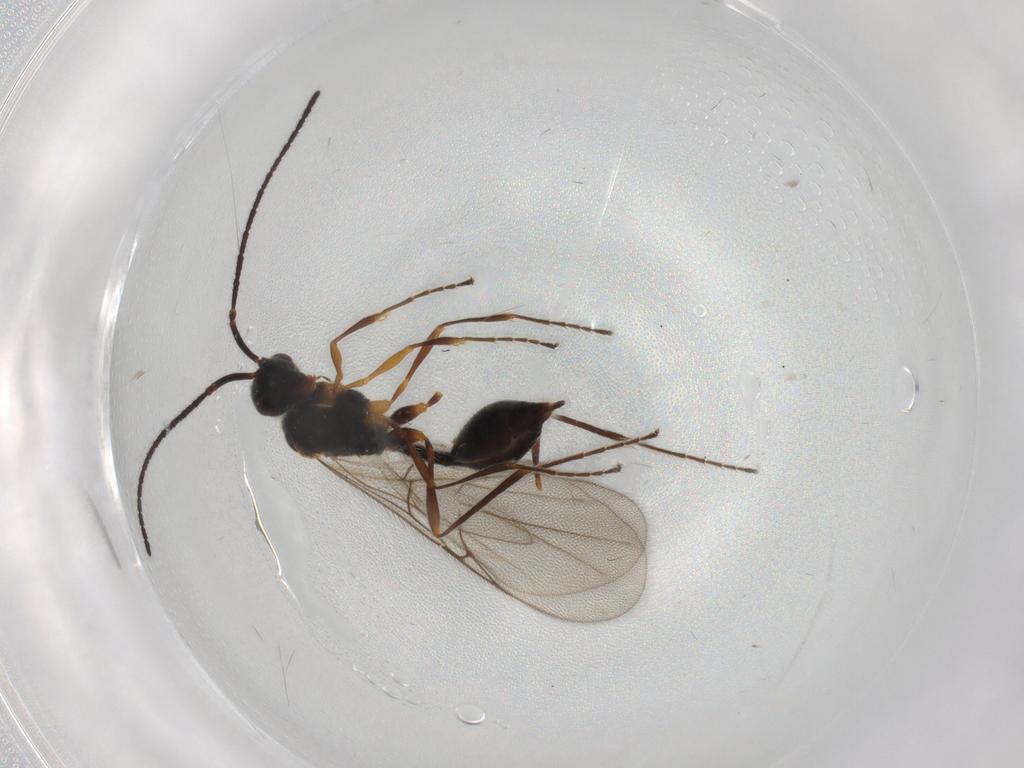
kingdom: Animalia
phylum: Arthropoda
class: Insecta
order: Hymenoptera
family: Diapriidae
